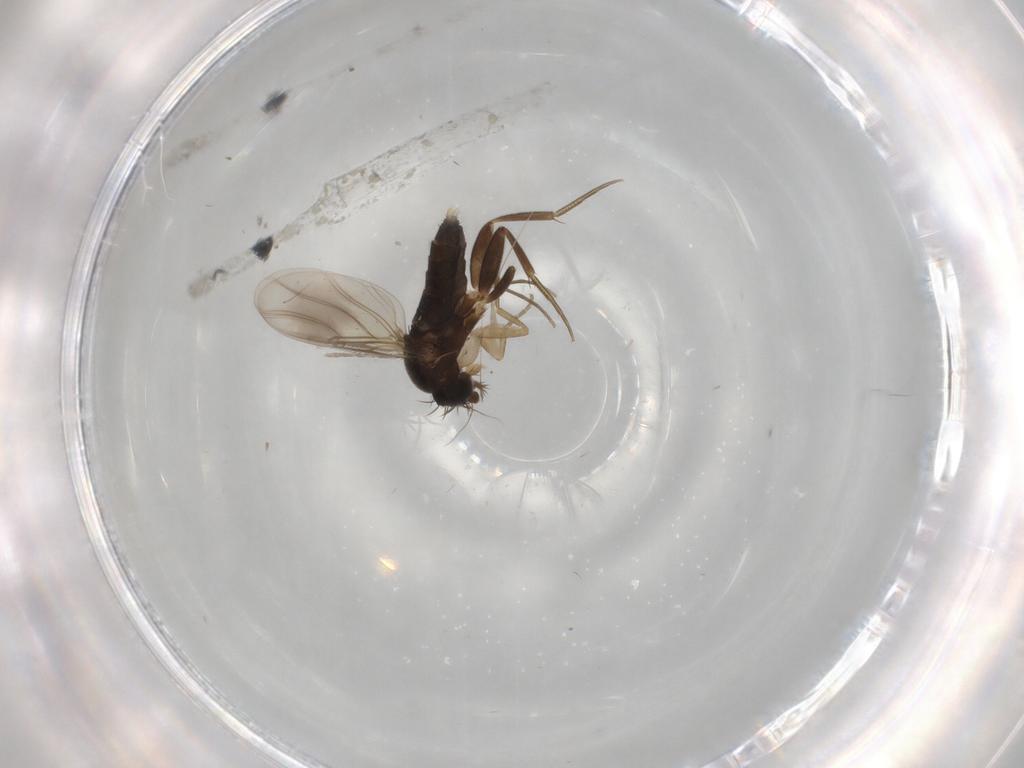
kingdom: Animalia
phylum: Arthropoda
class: Insecta
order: Diptera
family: Phoridae
